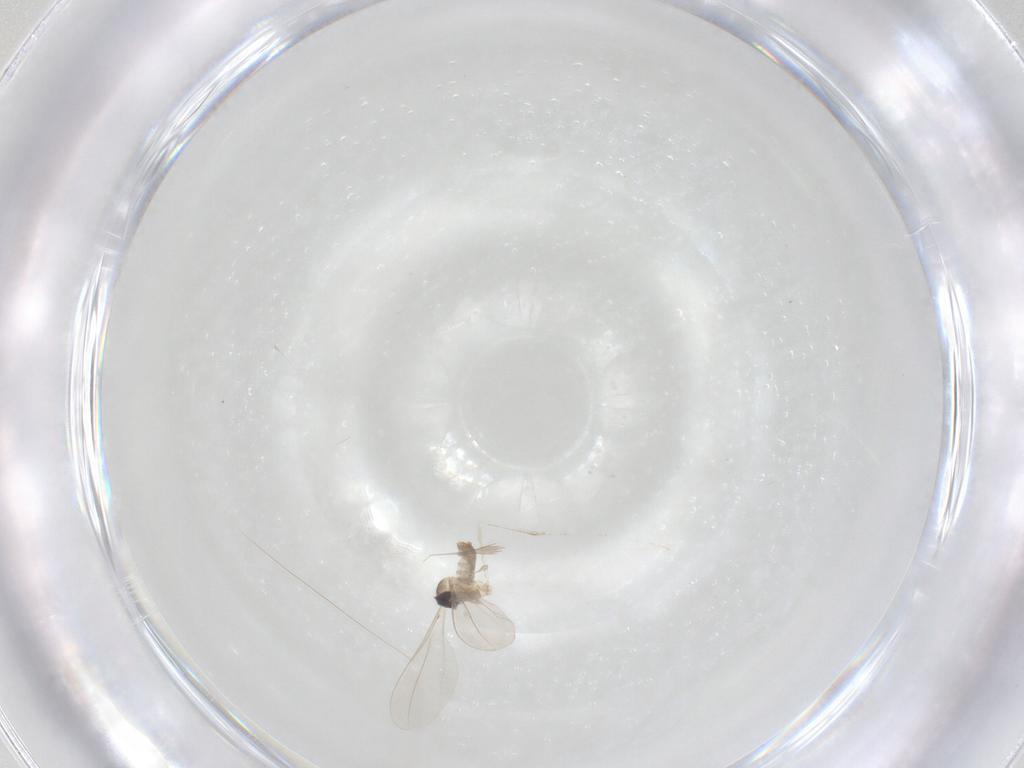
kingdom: Animalia
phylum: Arthropoda
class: Insecta
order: Diptera
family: Cecidomyiidae
